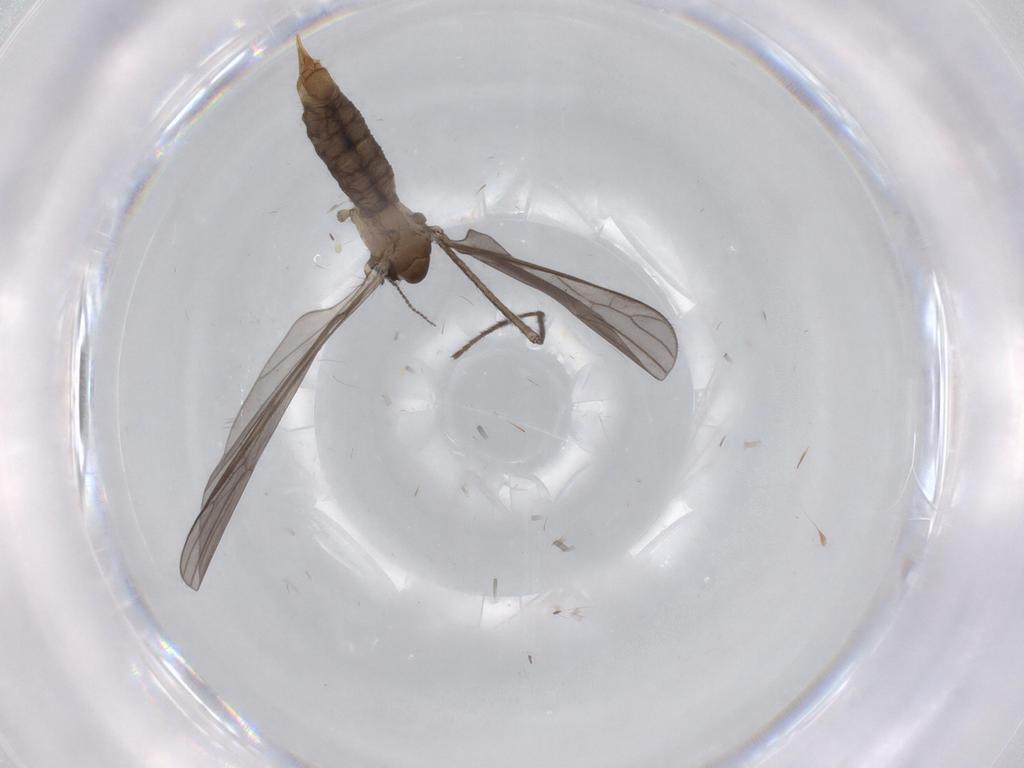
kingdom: Animalia
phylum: Arthropoda
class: Insecta
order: Diptera
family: Limoniidae
